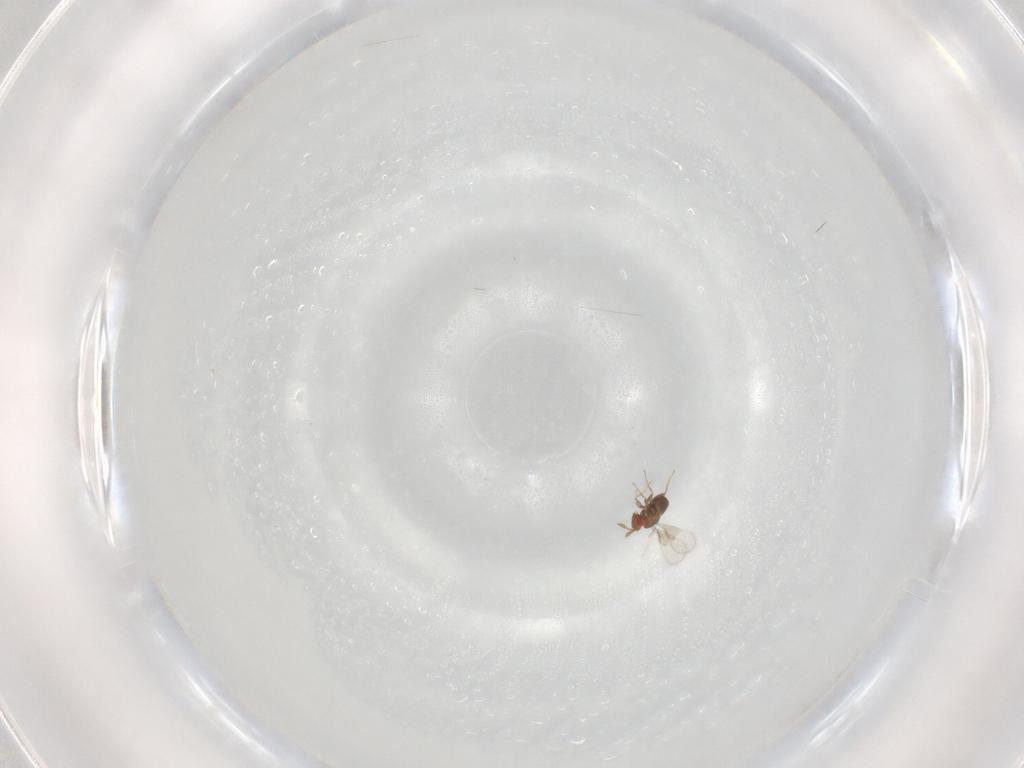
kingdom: Animalia
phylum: Arthropoda
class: Insecta
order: Hymenoptera
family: Trichogrammatidae
